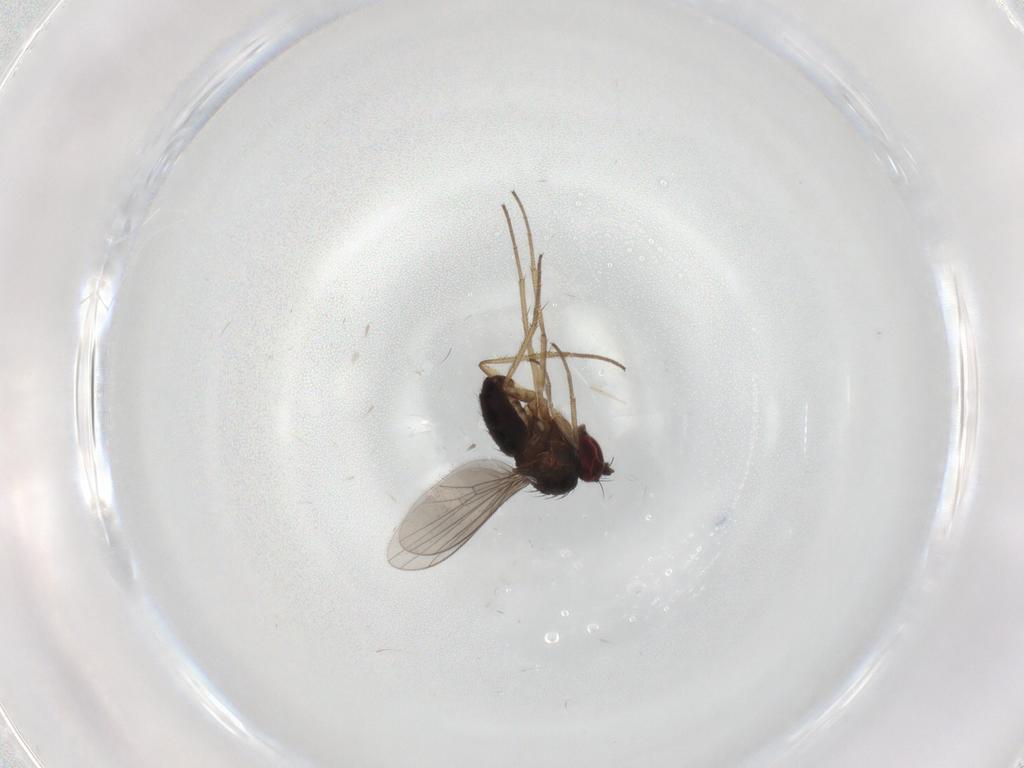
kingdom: Animalia
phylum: Arthropoda
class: Insecta
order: Diptera
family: Dolichopodidae
